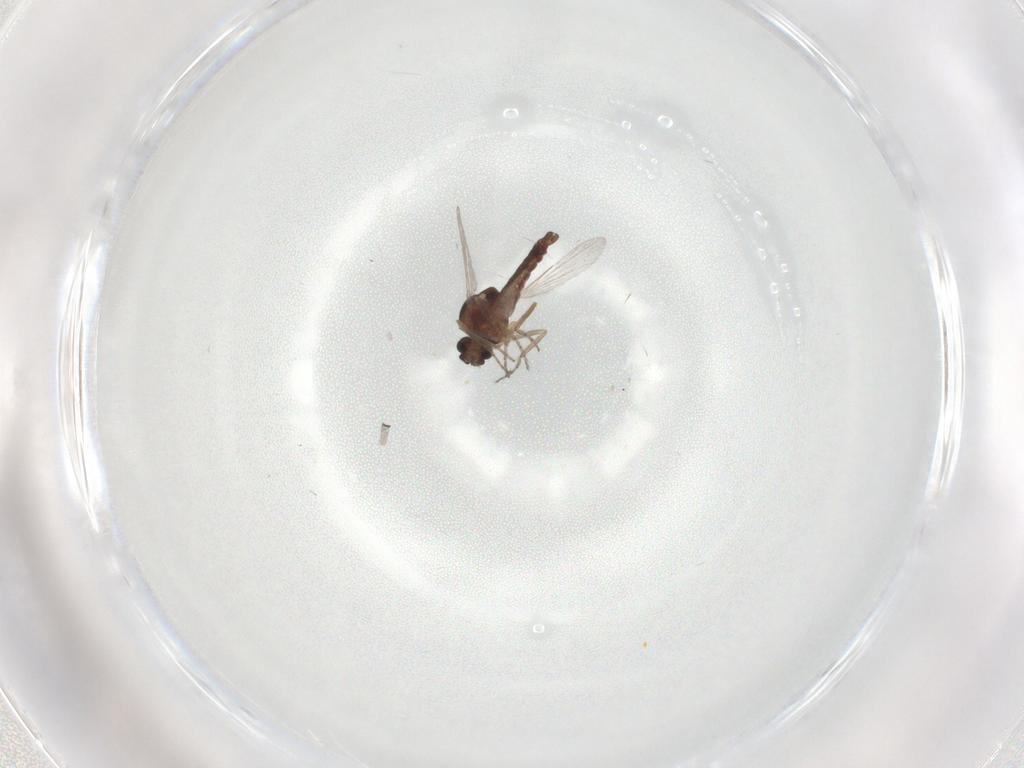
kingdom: Animalia
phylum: Arthropoda
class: Insecta
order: Diptera
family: Ceratopogonidae
